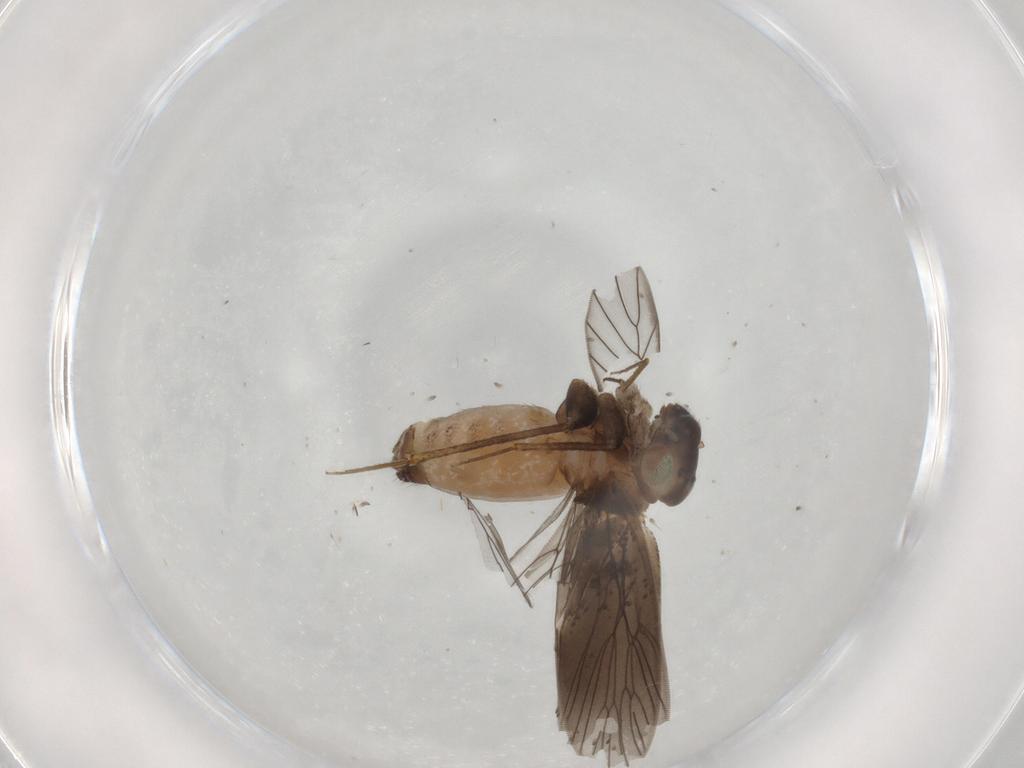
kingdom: Animalia
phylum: Arthropoda
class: Insecta
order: Psocodea
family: Lepidopsocidae
